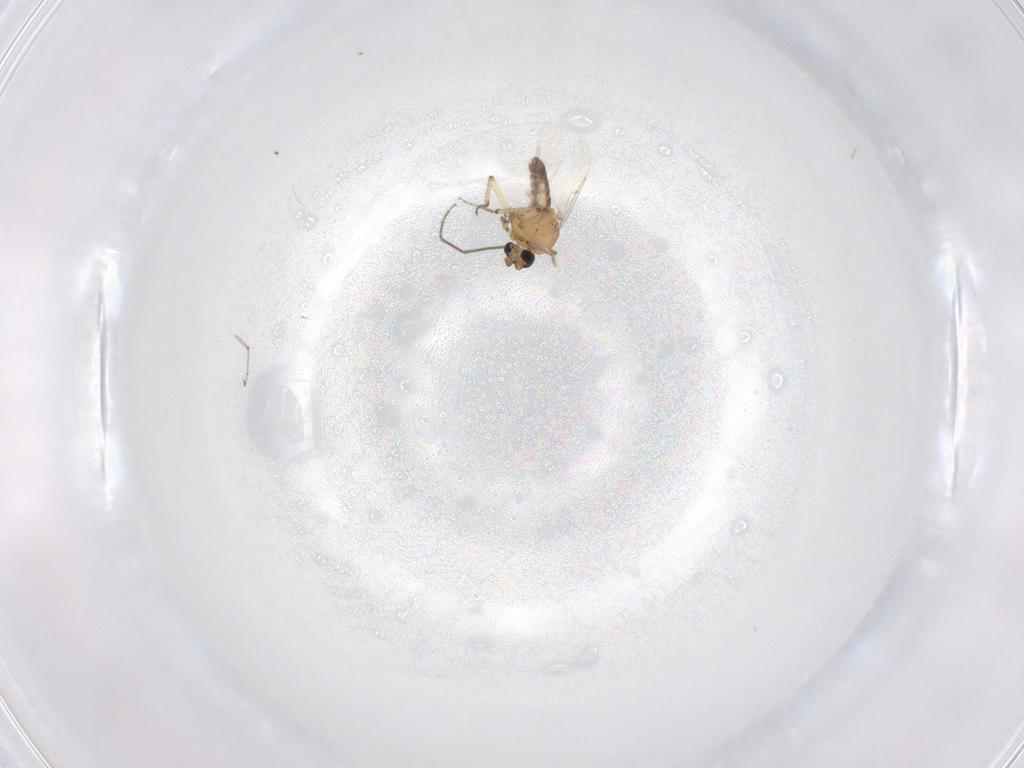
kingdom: Animalia
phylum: Arthropoda
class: Insecta
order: Diptera
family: Ceratopogonidae
